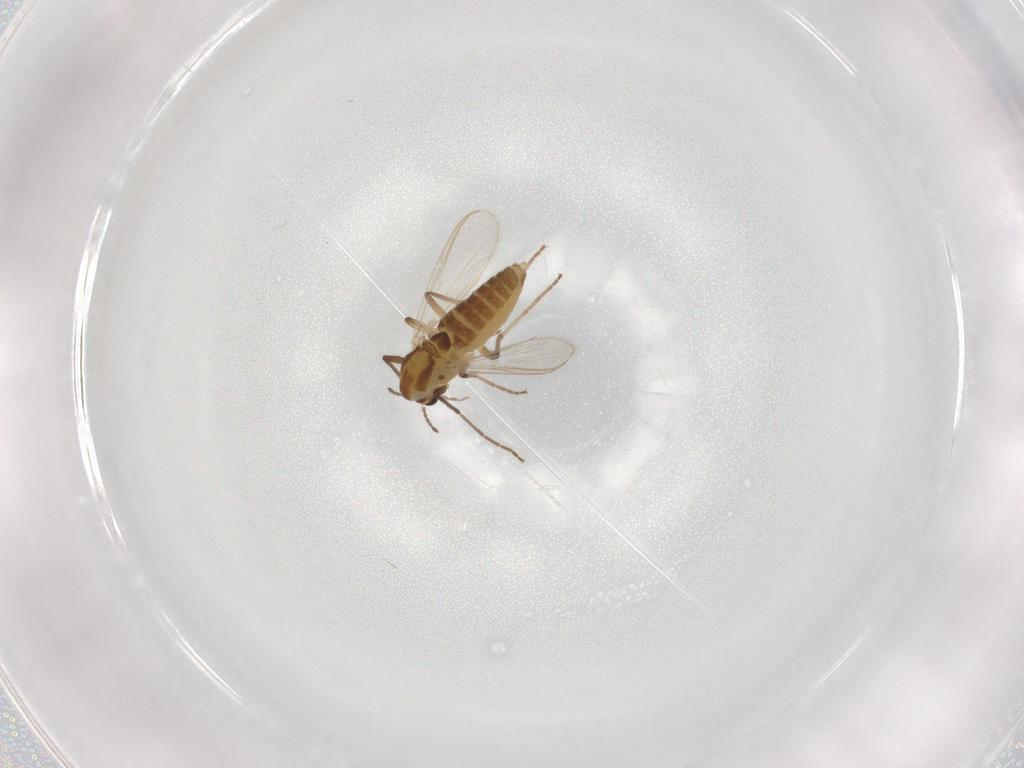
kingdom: Animalia
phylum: Arthropoda
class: Insecta
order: Diptera
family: Chironomidae
